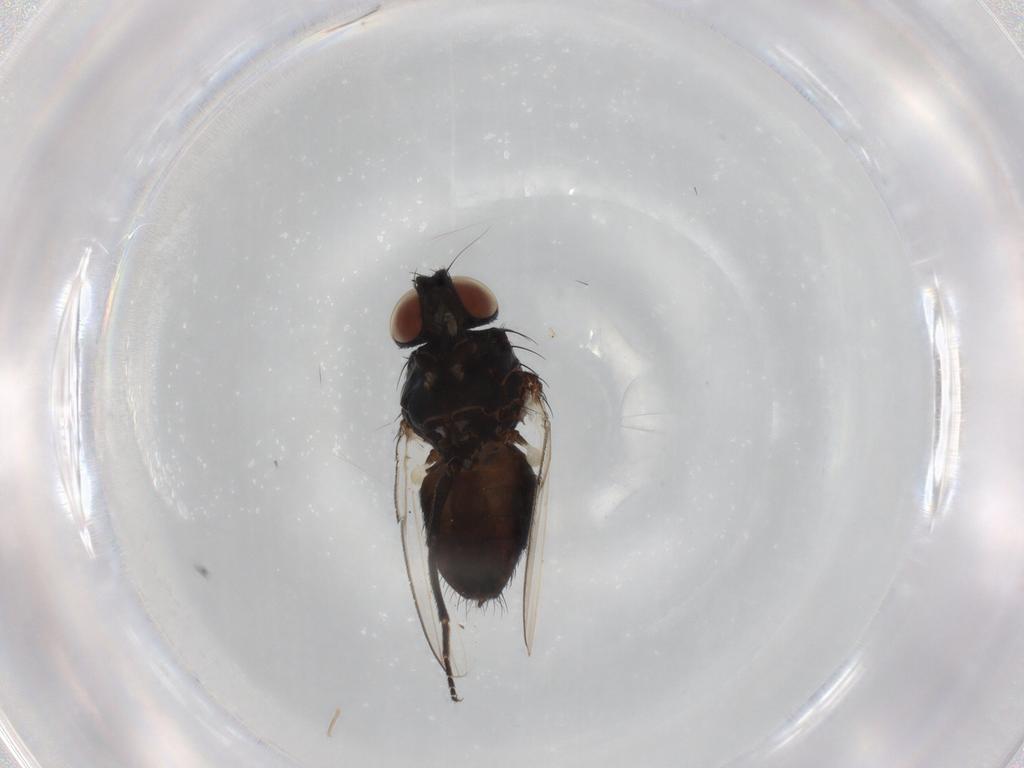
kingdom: Animalia
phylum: Arthropoda
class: Insecta
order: Diptera
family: Milichiidae
